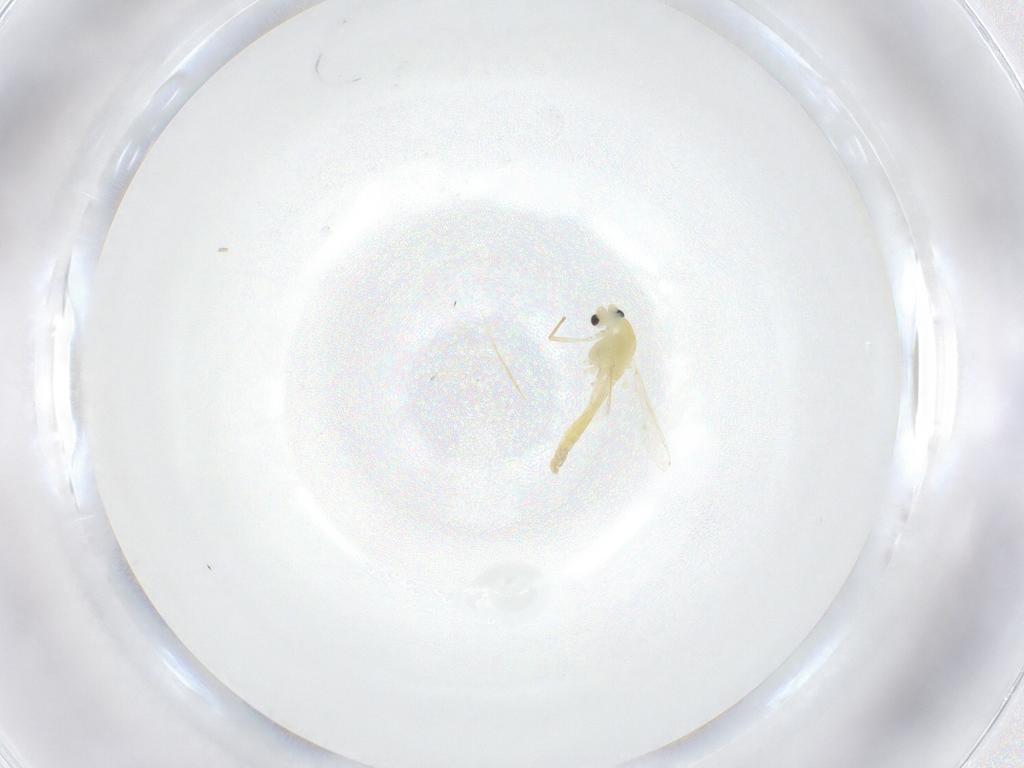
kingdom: Animalia
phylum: Arthropoda
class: Insecta
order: Diptera
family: Chironomidae
